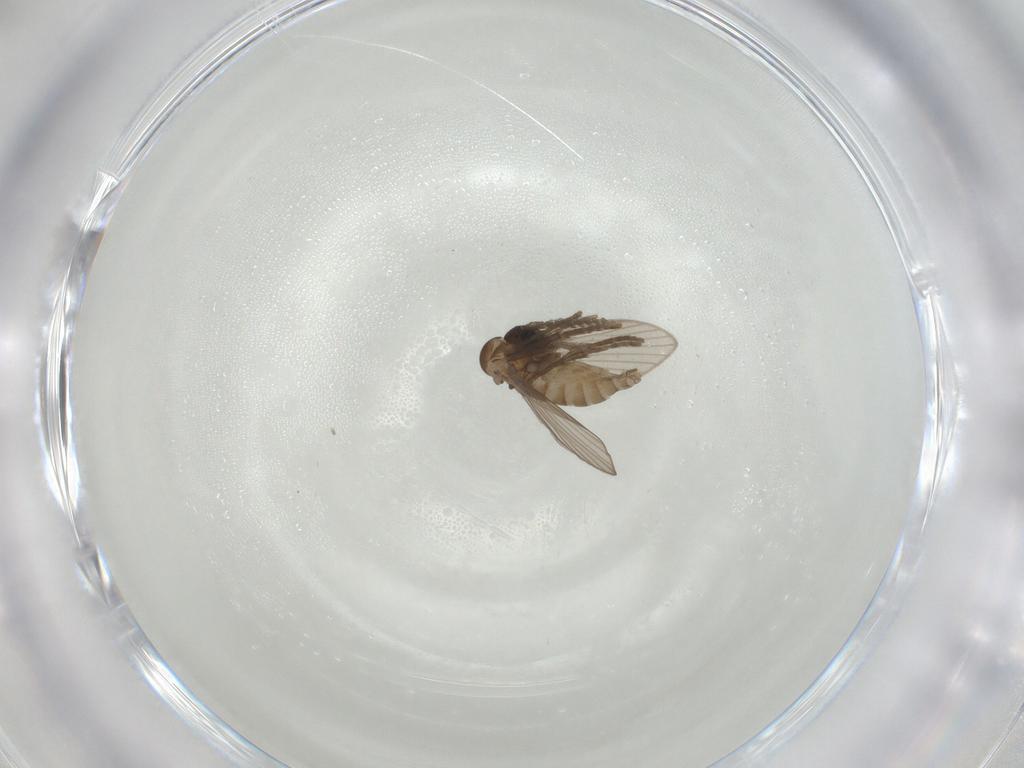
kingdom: Animalia
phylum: Arthropoda
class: Insecta
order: Diptera
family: Psychodidae
